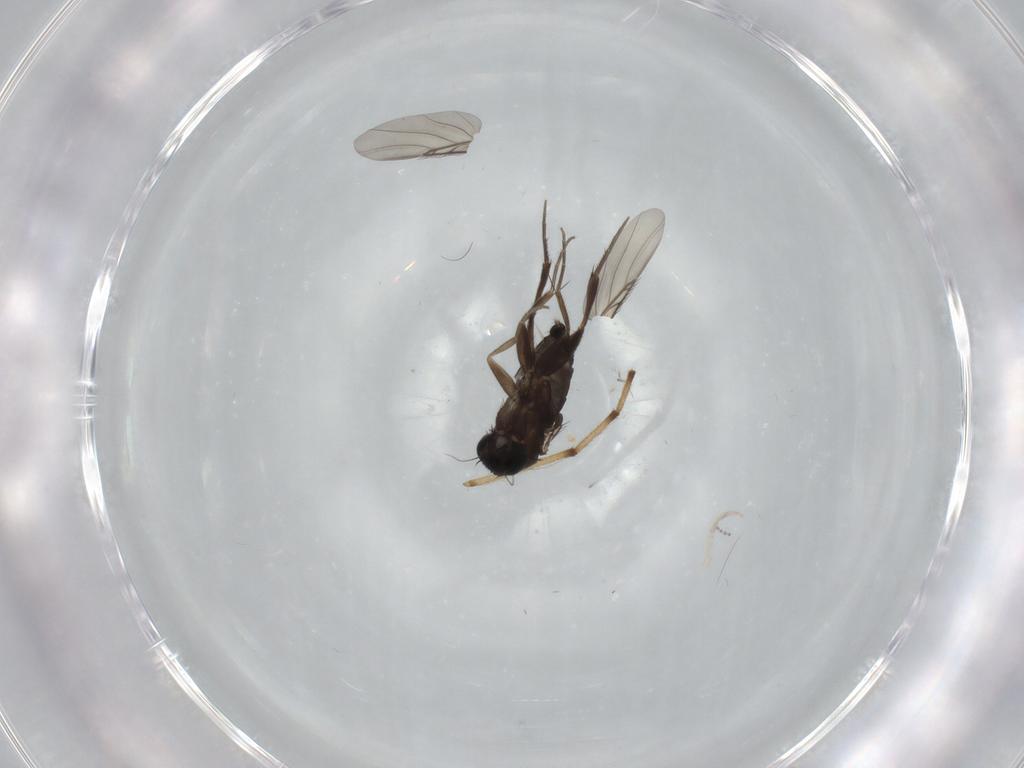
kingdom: Animalia
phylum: Arthropoda
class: Insecta
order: Diptera
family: Phoridae
